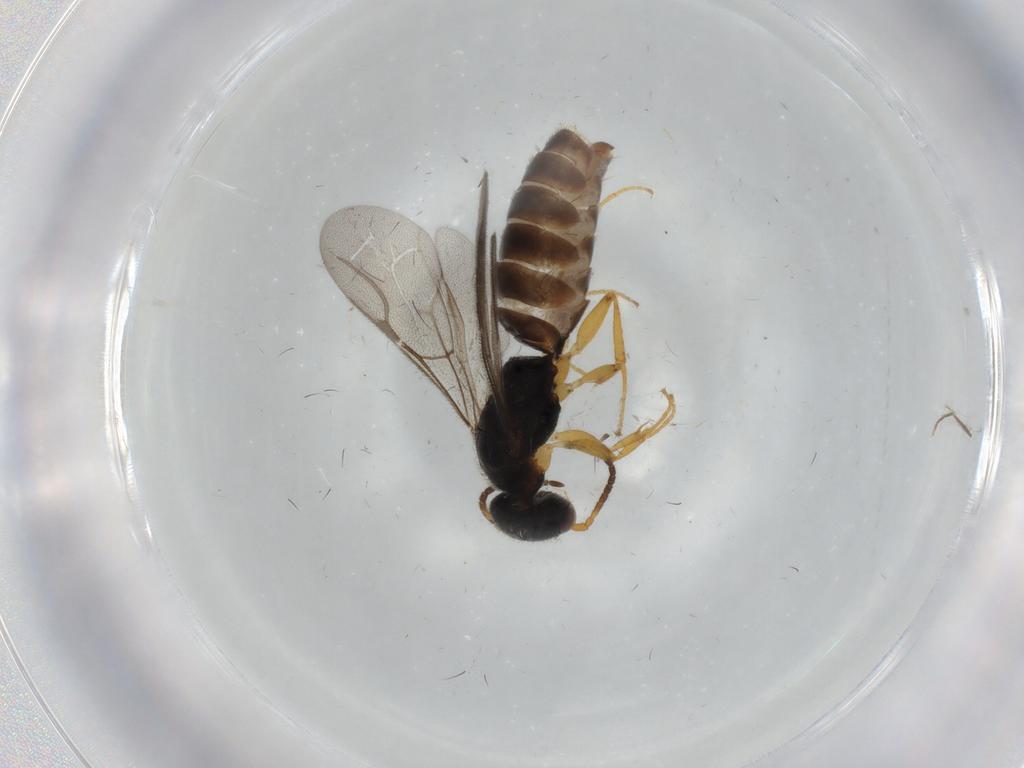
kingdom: Animalia
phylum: Arthropoda
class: Insecta
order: Hymenoptera
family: Bethylidae
